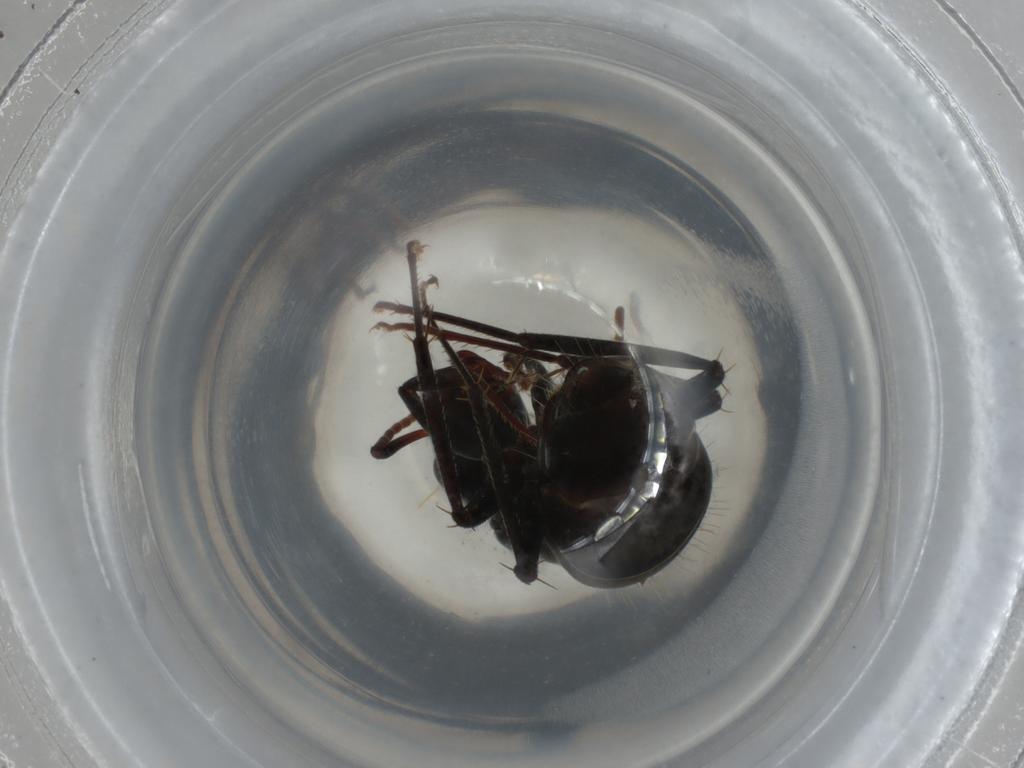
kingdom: Animalia
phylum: Arthropoda
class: Insecta
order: Hymenoptera
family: Formicidae
